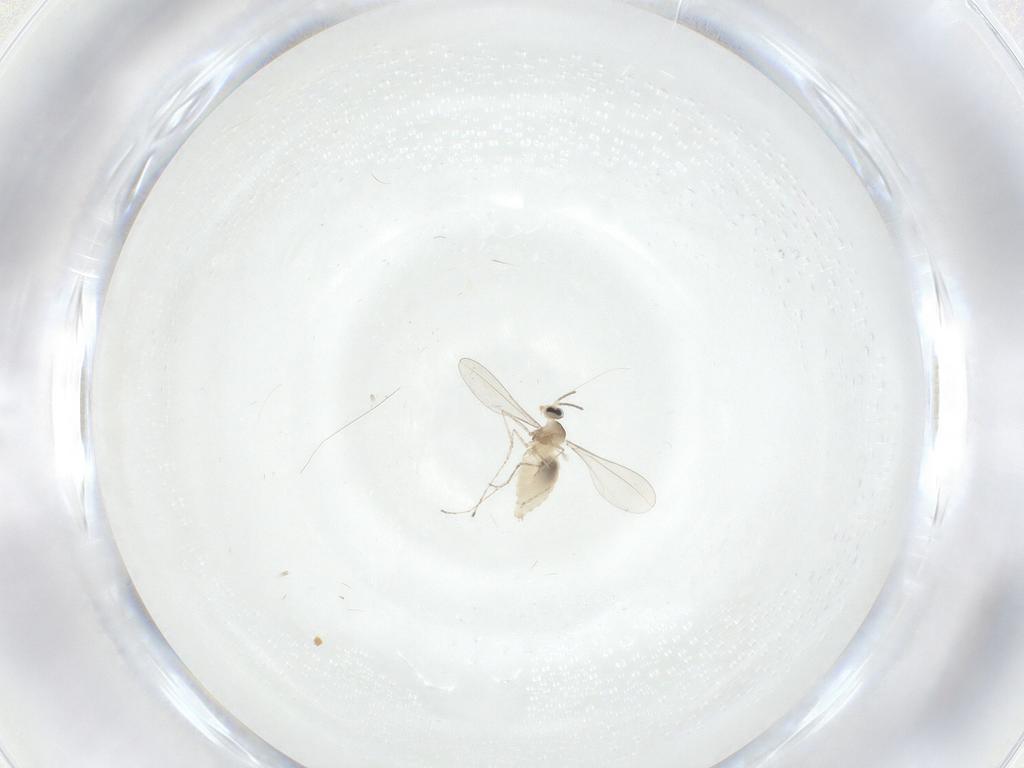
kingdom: Animalia
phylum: Arthropoda
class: Insecta
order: Diptera
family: Cecidomyiidae
